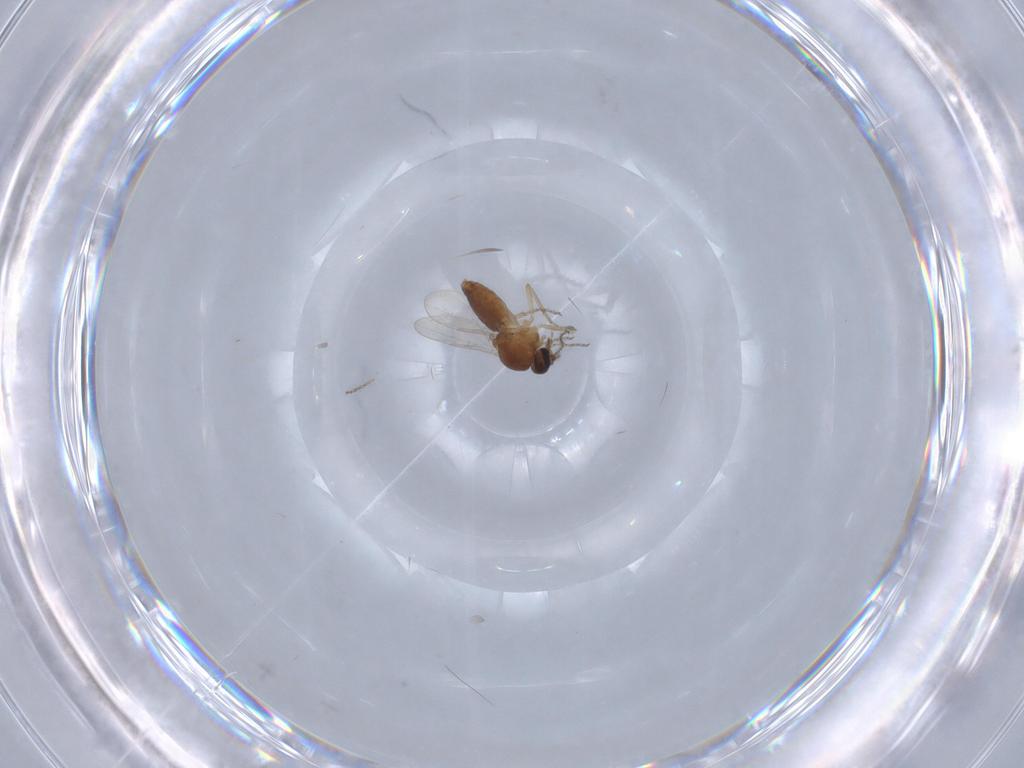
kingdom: Animalia
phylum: Arthropoda
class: Insecta
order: Diptera
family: Ceratopogonidae
